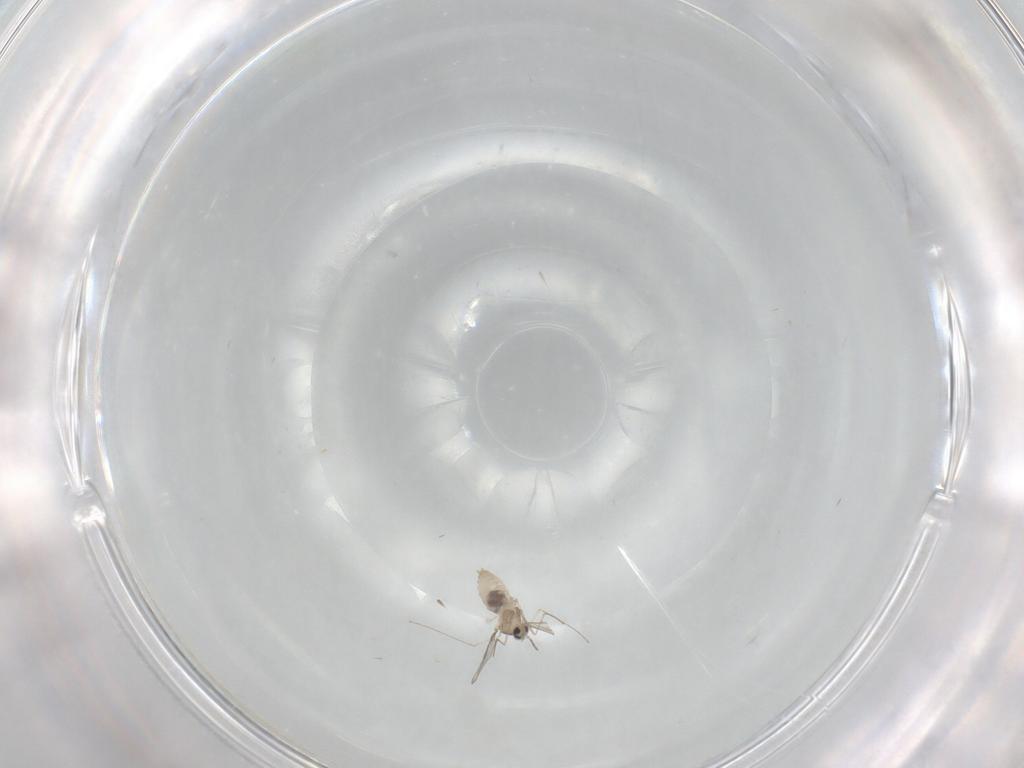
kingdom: Animalia
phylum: Arthropoda
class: Insecta
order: Diptera
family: Cecidomyiidae
